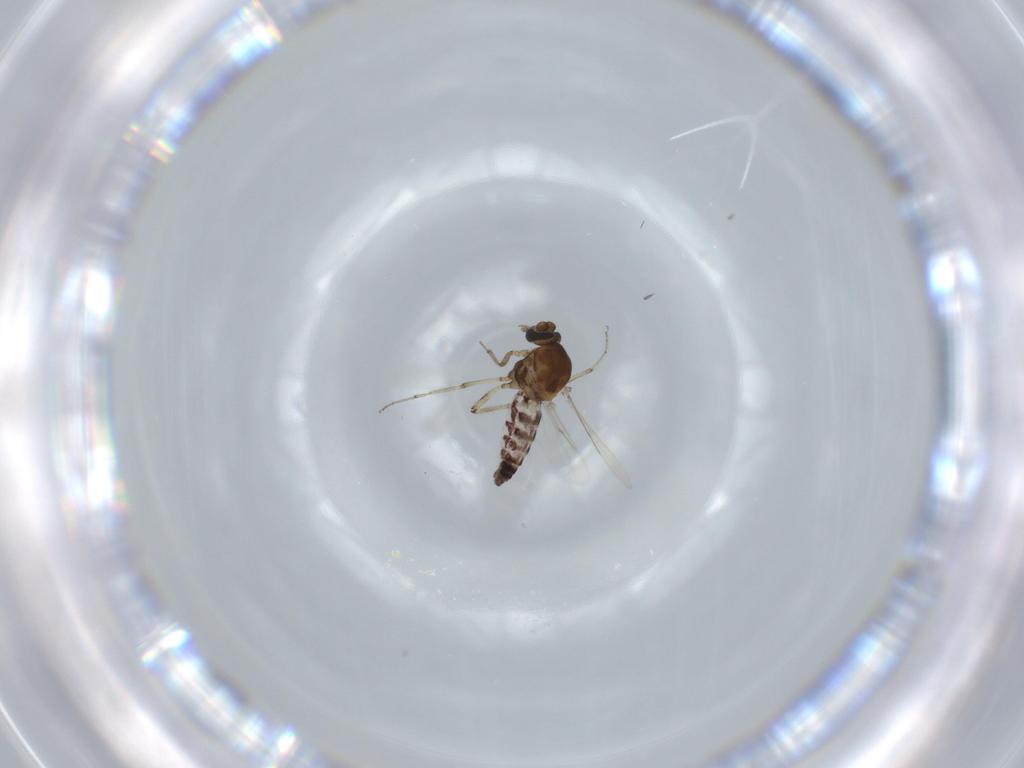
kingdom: Animalia
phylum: Arthropoda
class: Insecta
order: Diptera
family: Ceratopogonidae
